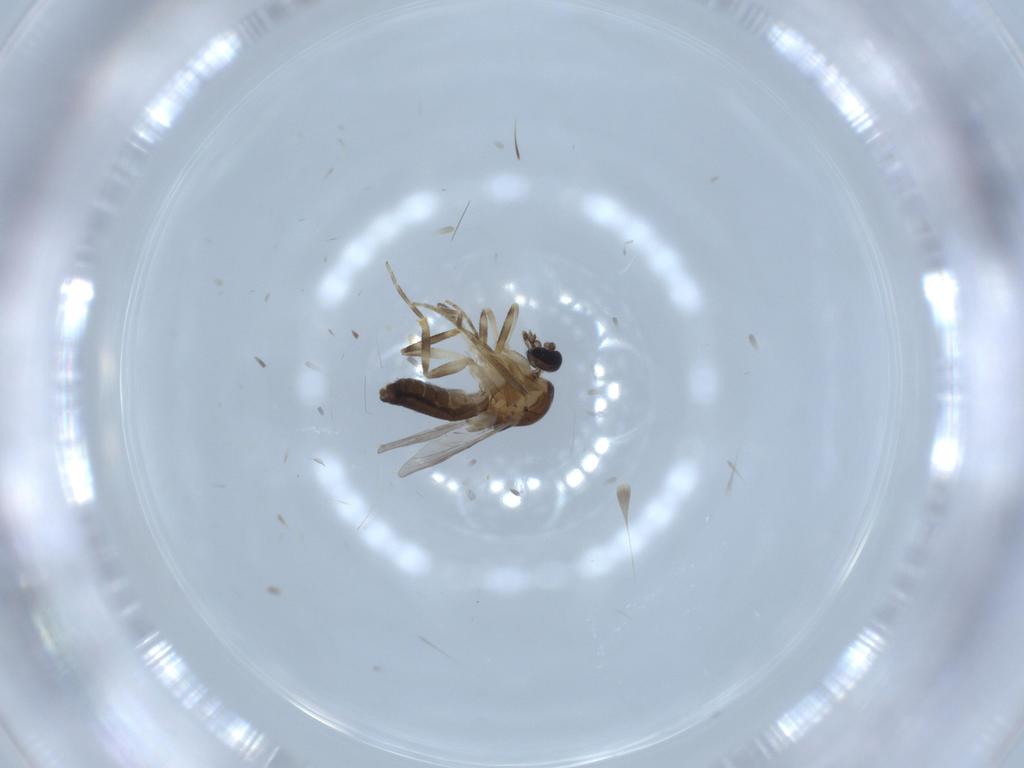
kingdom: Animalia
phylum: Arthropoda
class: Insecta
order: Diptera
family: Ceratopogonidae
